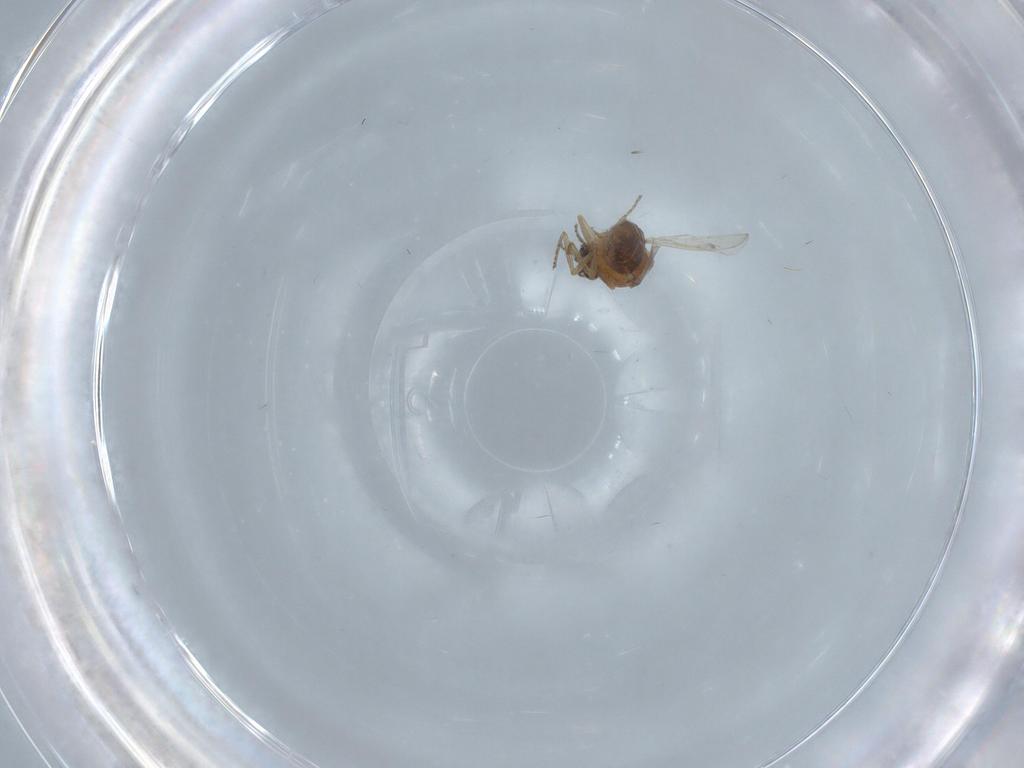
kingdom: Animalia
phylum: Arthropoda
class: Insecta
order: Diptera
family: Ceratopogonidae
